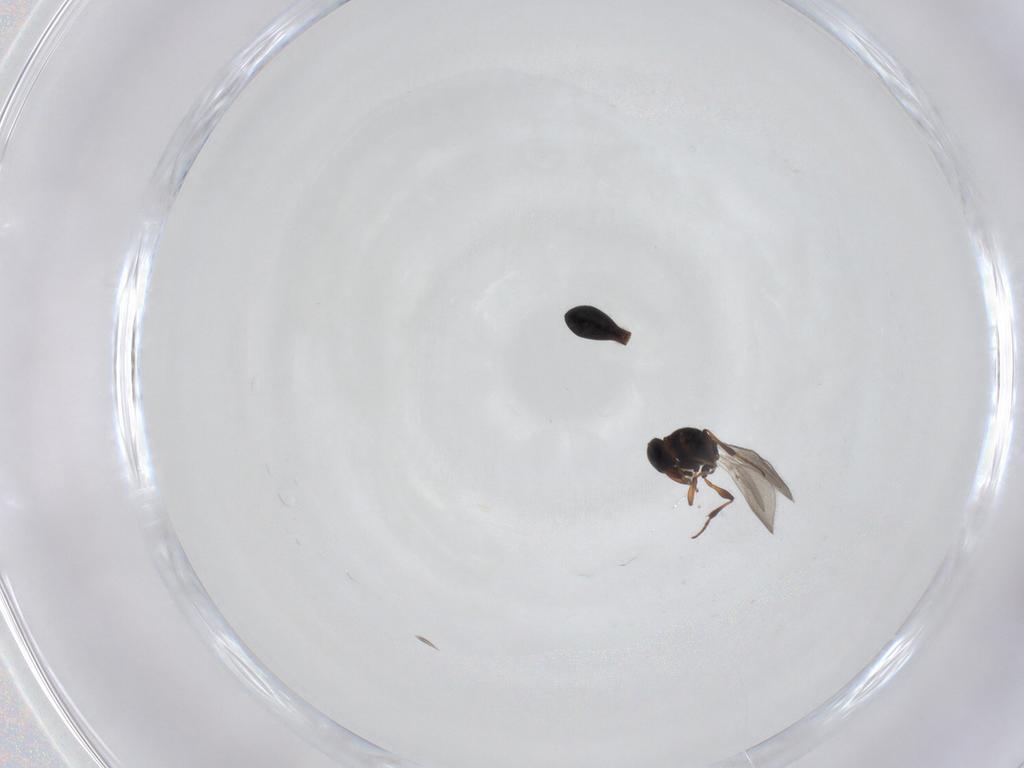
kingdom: Animalia
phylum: Arthropoda
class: Insecta
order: Hymenoptera
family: Platygastridae
